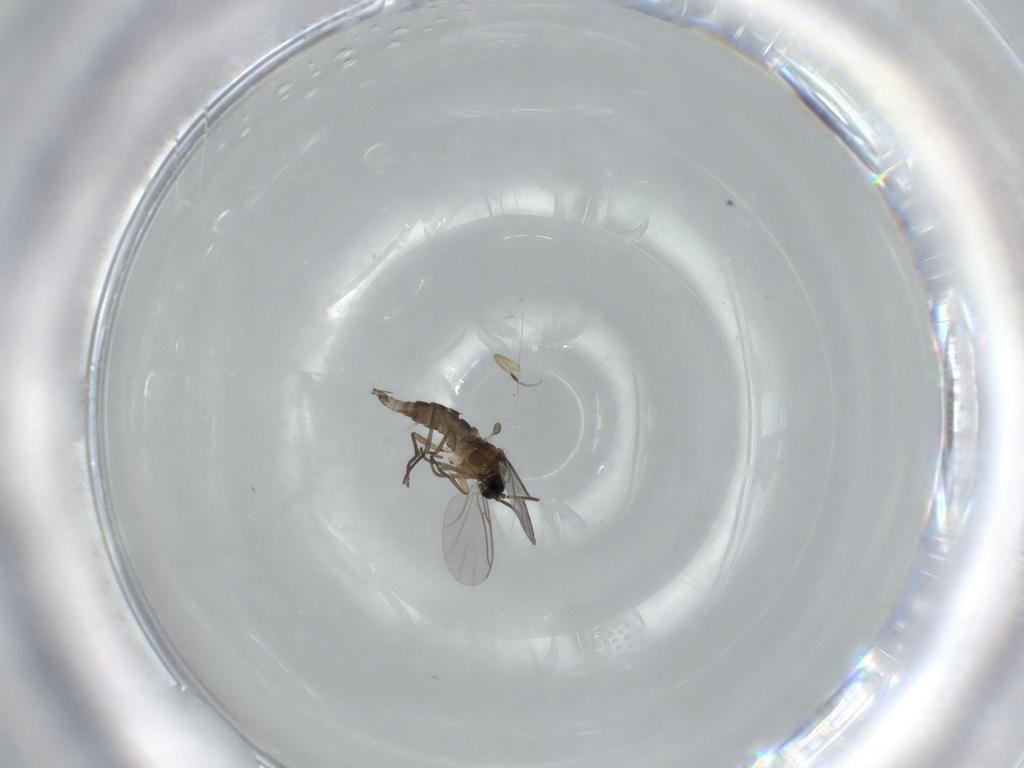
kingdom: Animalia
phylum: Arthropoda
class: Insecta
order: Diptera
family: Sciaridae
